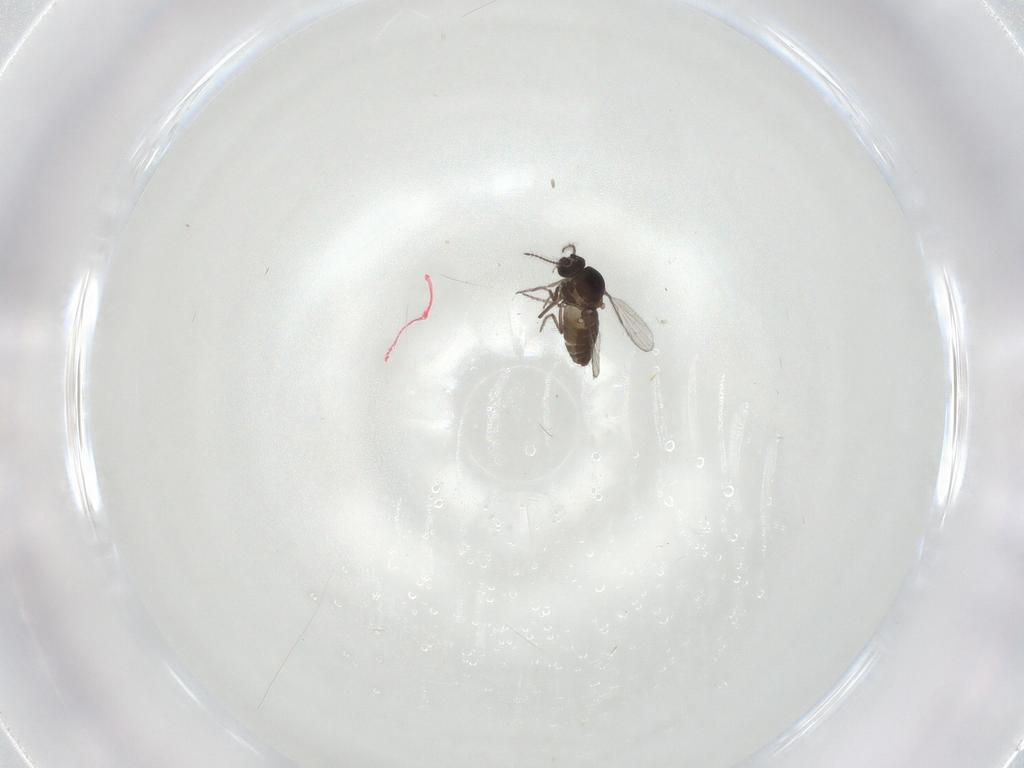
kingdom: Animalia
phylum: Arthropoda
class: Insecta
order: Diptera
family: Ceratopogonidae
